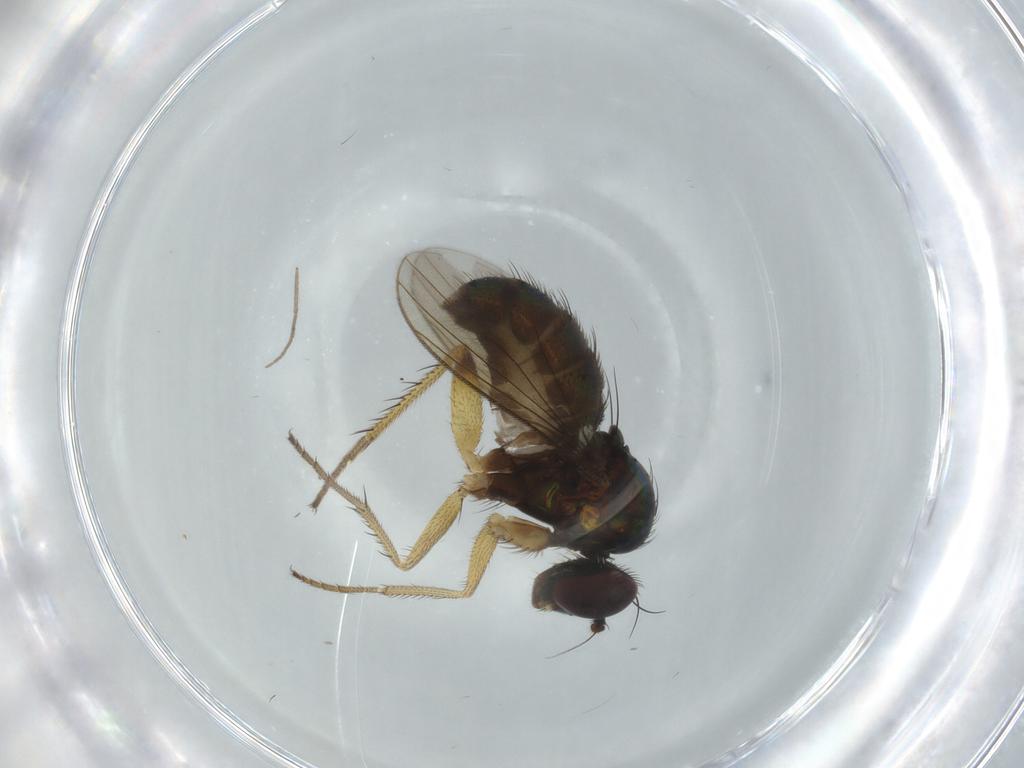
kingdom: Animalia
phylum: Arthropoda
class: Insecta
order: Diptera
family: Dolichopodidae
